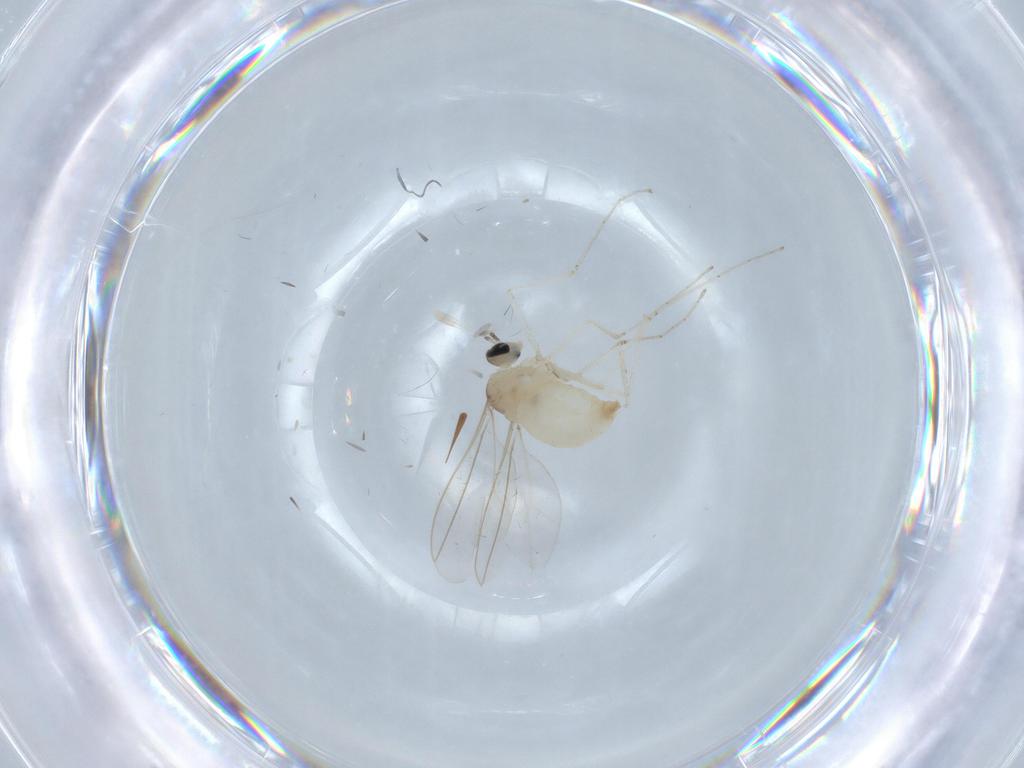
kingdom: Animalia
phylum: Arthropoda
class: Insecta
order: Diptera
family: Cecidomyiidae
